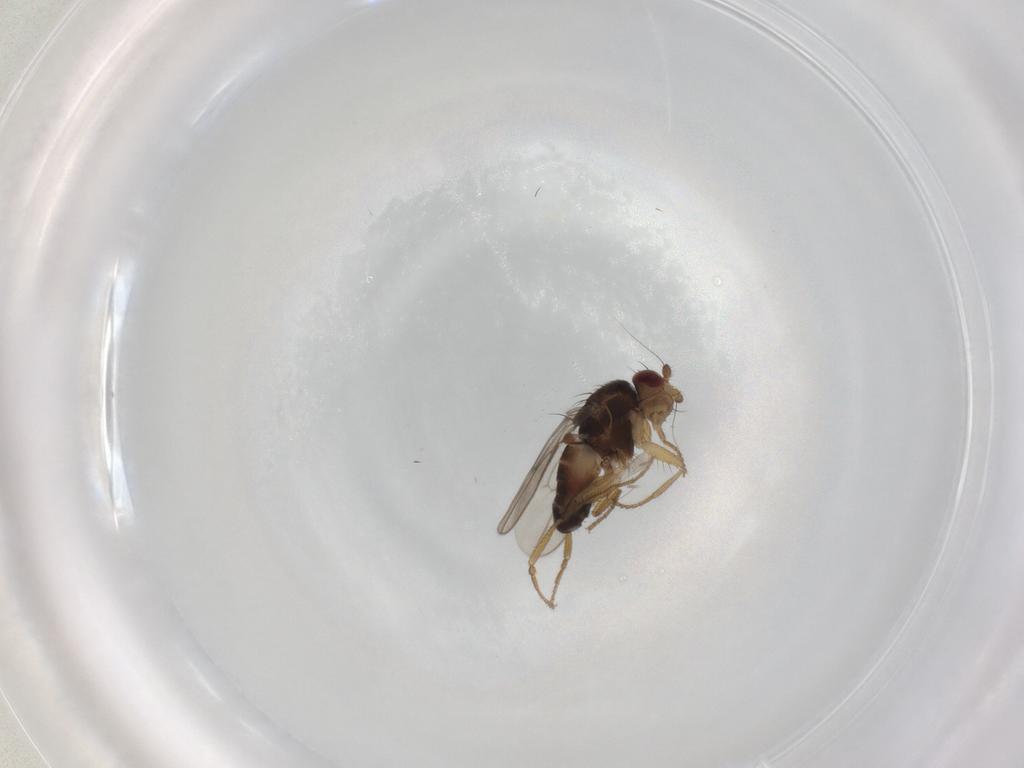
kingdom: Animalia
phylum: Arthropoda
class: Insecta
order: Diptera
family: Sphaeroceridae
